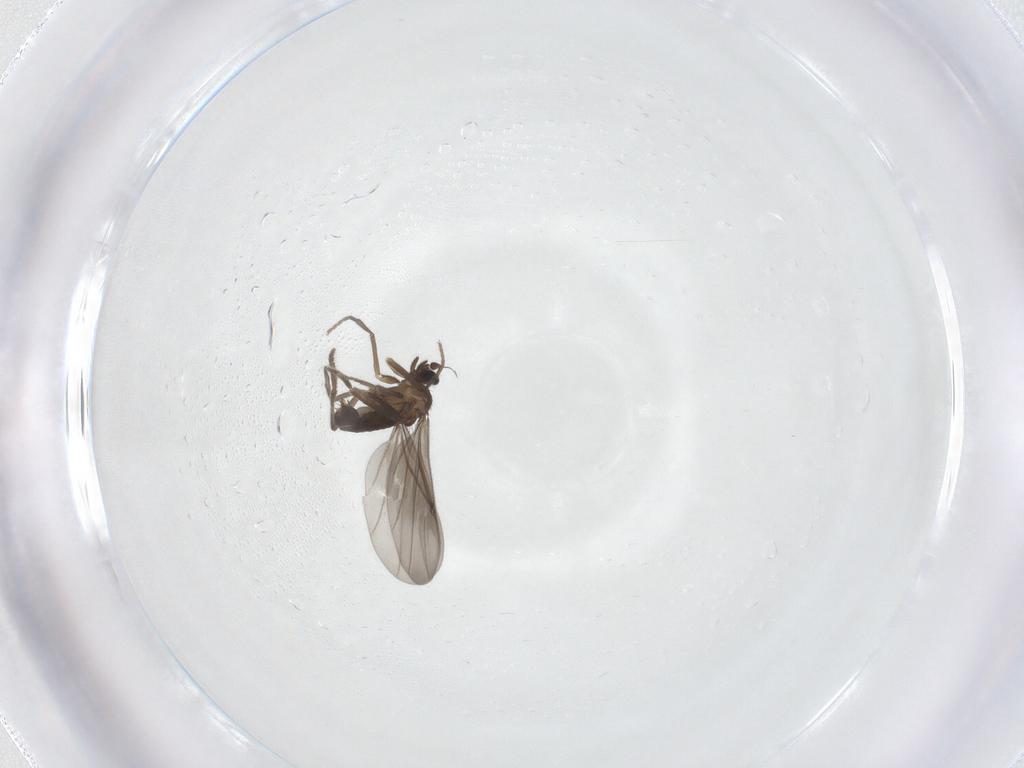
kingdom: Animalia
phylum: Arthropoda
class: Insecta
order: Diptera
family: Phoridae
